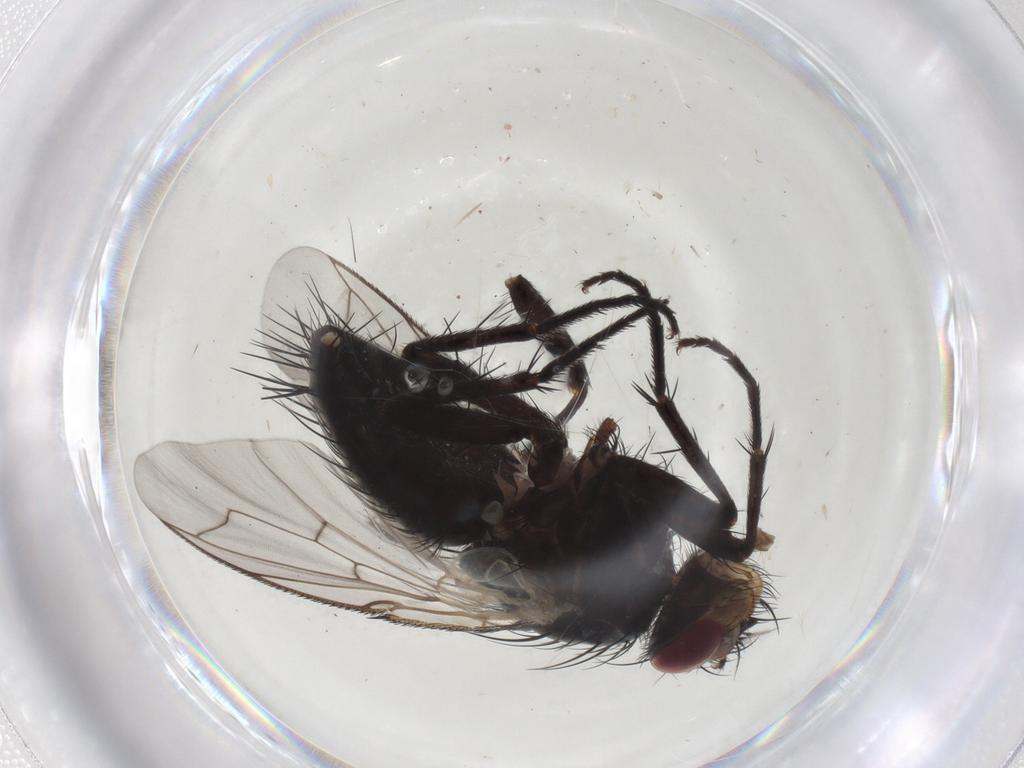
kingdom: Animalia
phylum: Arthropoda
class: Insecta
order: Diptera
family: Tachinidae
